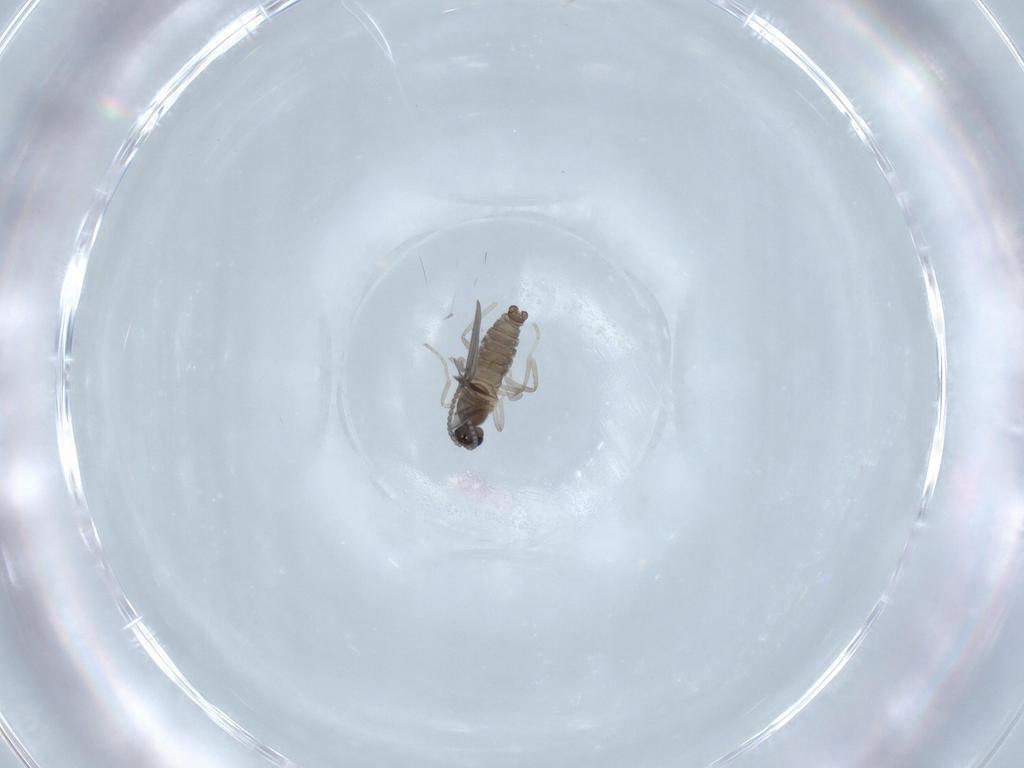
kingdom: Animalia
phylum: Arthropoda
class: Insecta
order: Diptera
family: Cecidomyiidae
